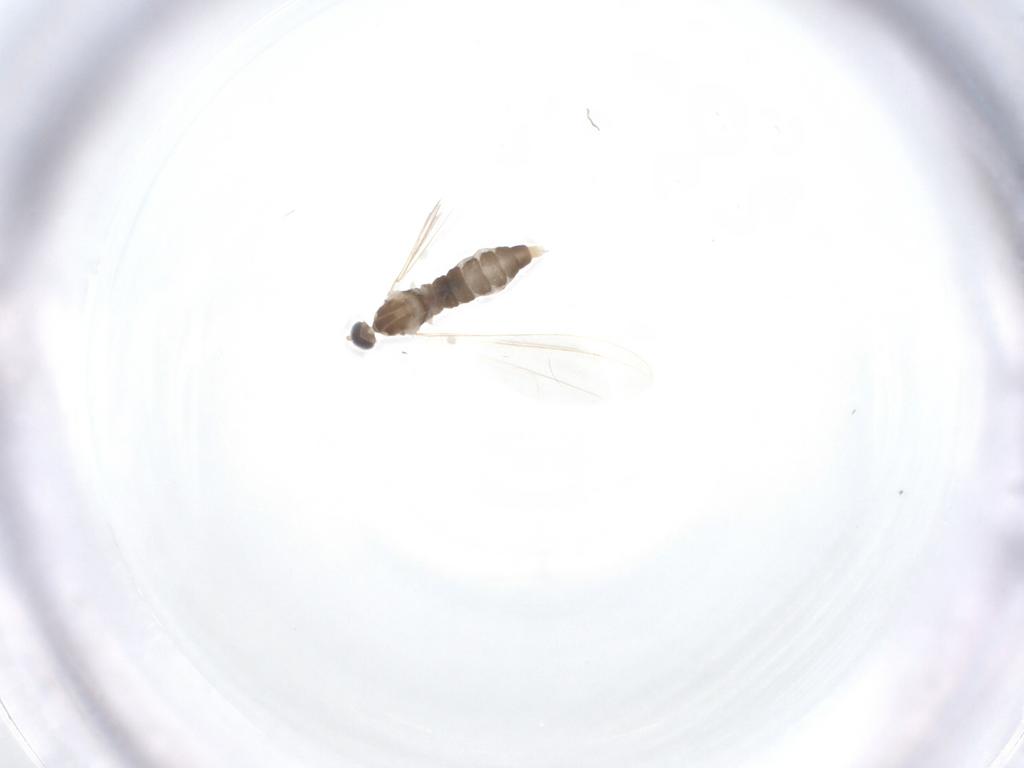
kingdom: Animalia
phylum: Arthropoda
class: Insecta
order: Diptera
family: Cecidomyiidae
